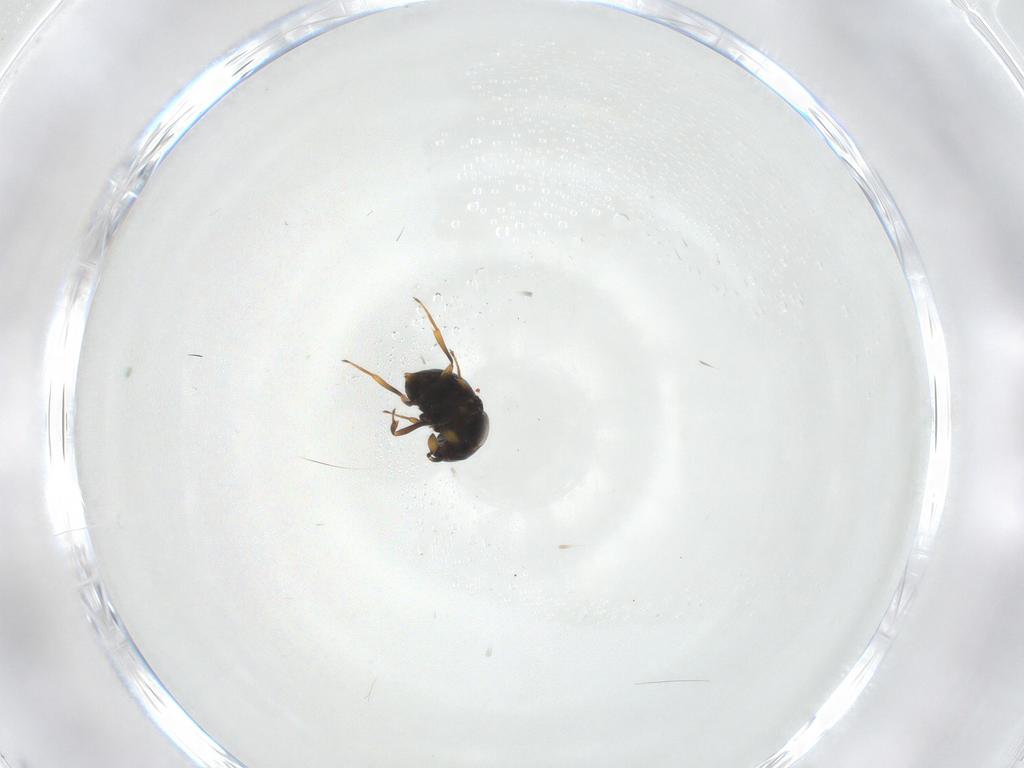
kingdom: Animalia
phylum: Arthropoda
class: Insecta
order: Hymenoptera
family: Scelionidae
